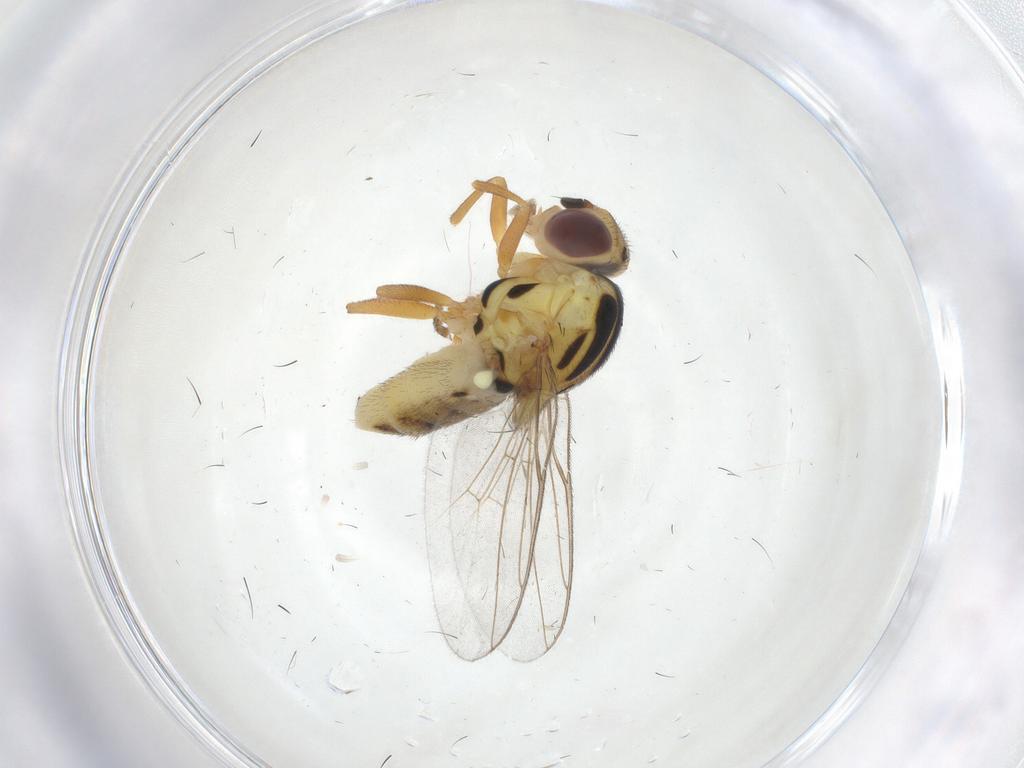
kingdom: Animalia
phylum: Arthropoda
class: Insecta
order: Diptera
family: Chloropidae
